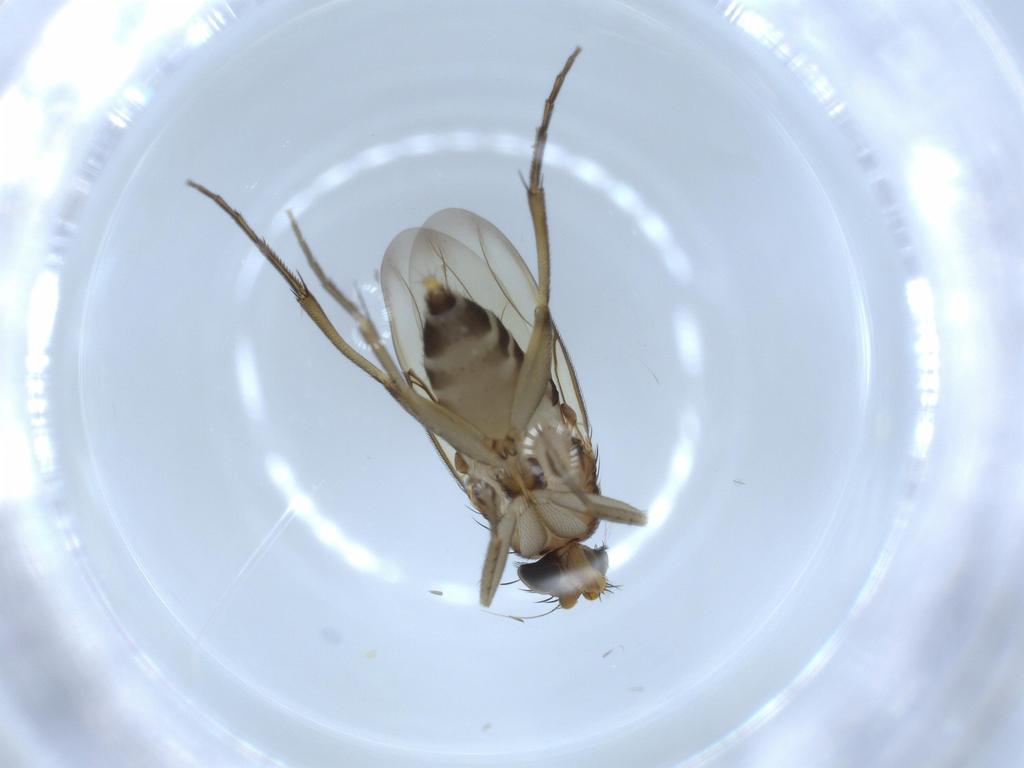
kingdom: Animalia
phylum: Arthropoda
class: Insecta
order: Diptera
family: Phoridae
